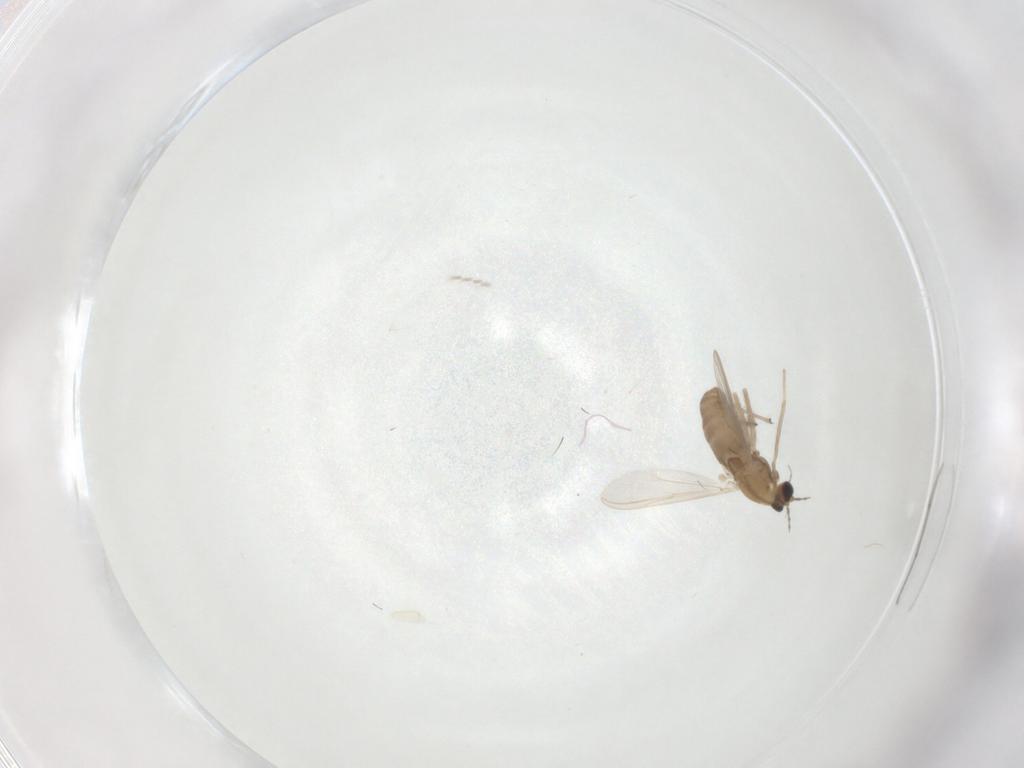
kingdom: Animalia
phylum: Arthropoda
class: Insecta
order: Diptera
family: Chironomidae
